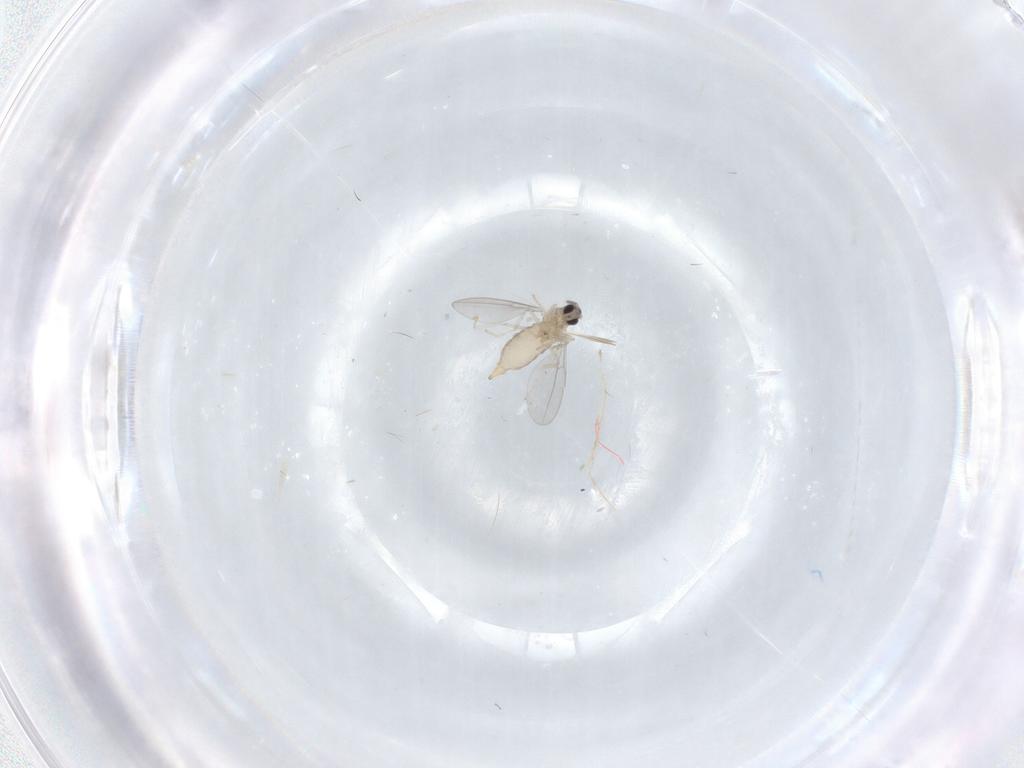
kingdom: Animalia
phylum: Arthropoda
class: Insecta
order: Diptera
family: Cecidomyiidae
